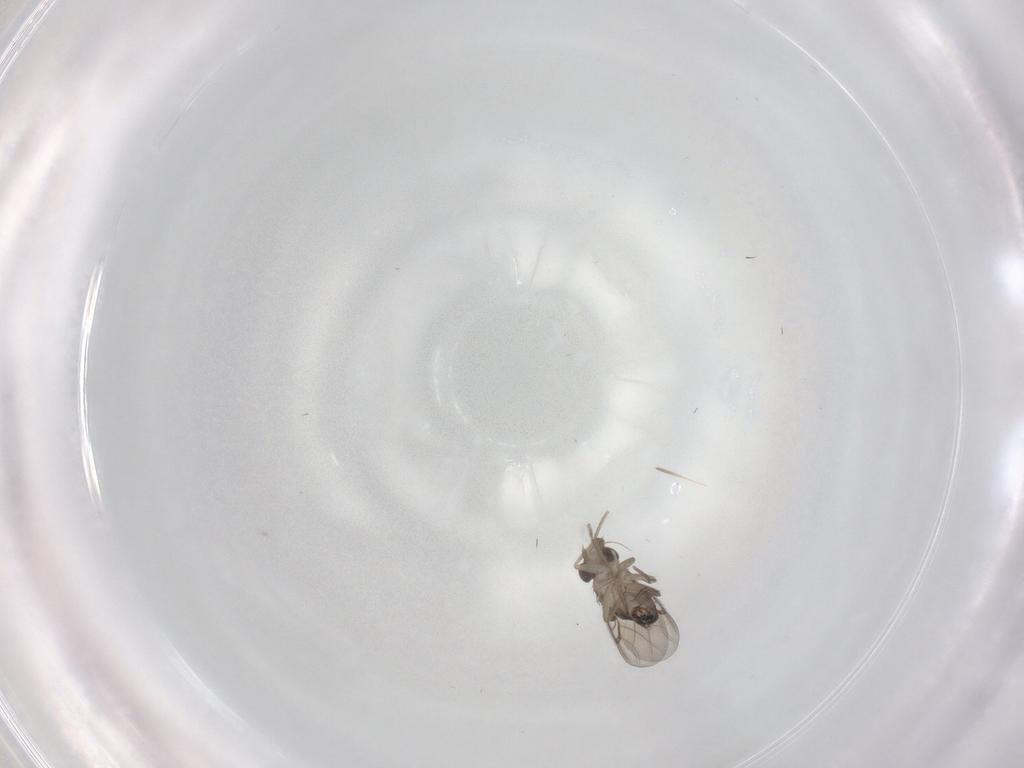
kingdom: Animalia
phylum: Arthropoda
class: Insecta
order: Diptera
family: Phoridae
